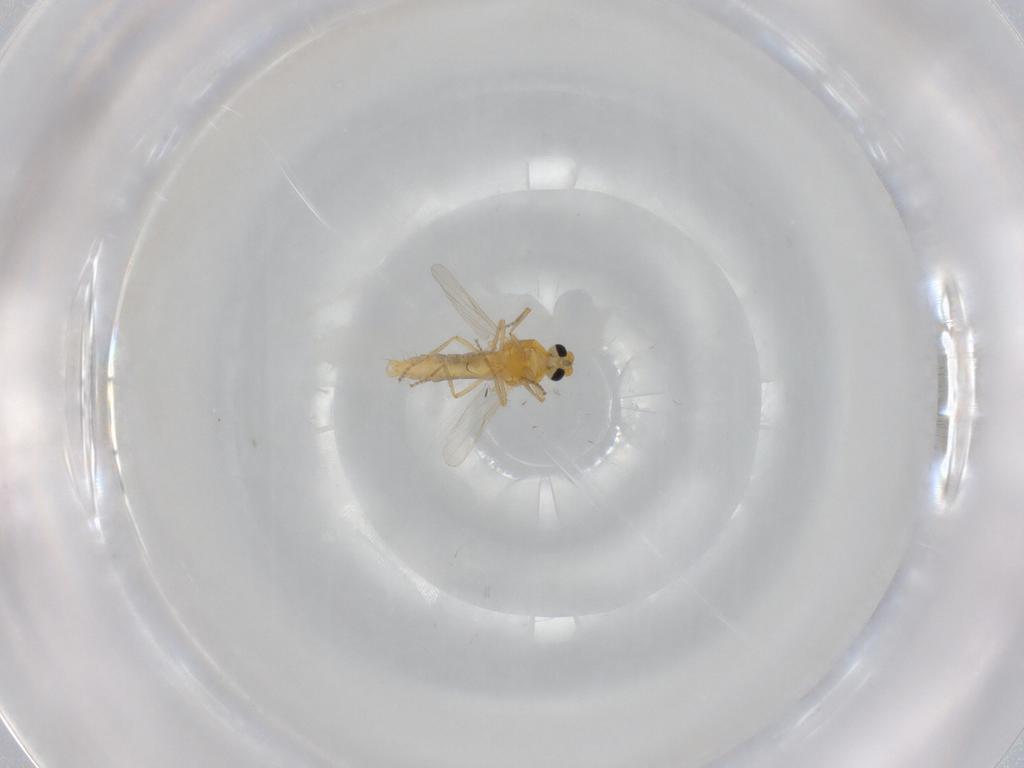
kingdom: Animalia
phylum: Arthropoda
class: Insecta
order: Diptera
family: Ceratopogonidae
